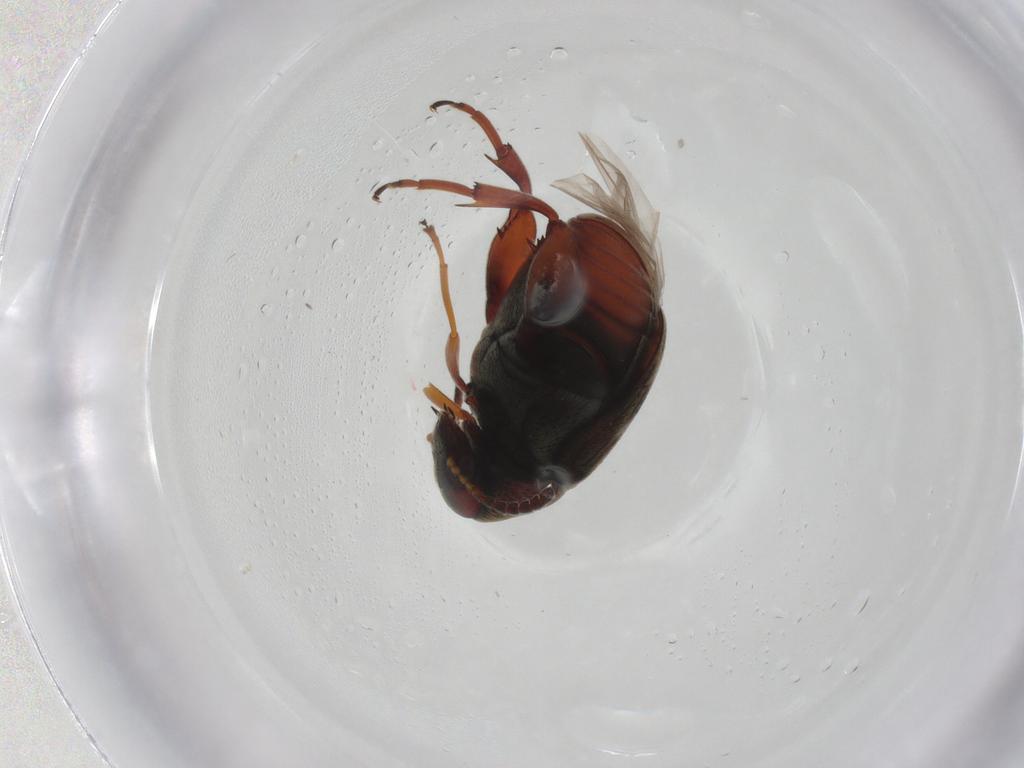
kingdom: Animalia
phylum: Arthropoda
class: Insecta
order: Coleoptera
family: Chrysomelidae
